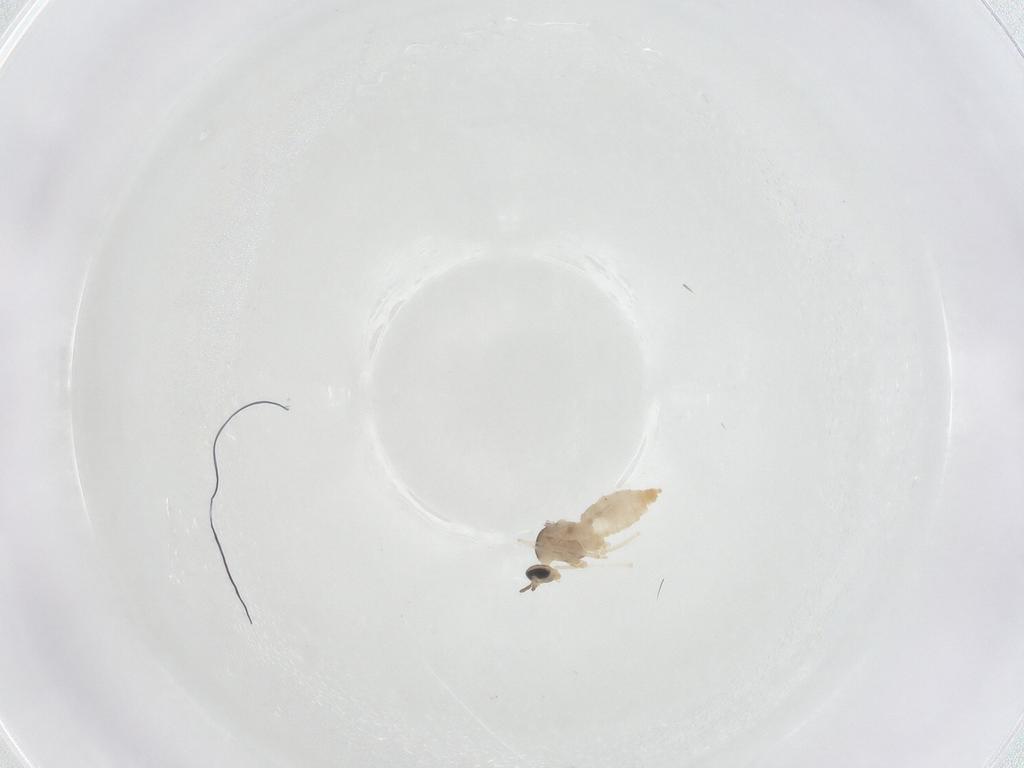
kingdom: Animalia
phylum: Arthropoda
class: Insecta
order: Diptera
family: Cecidomyiidae
